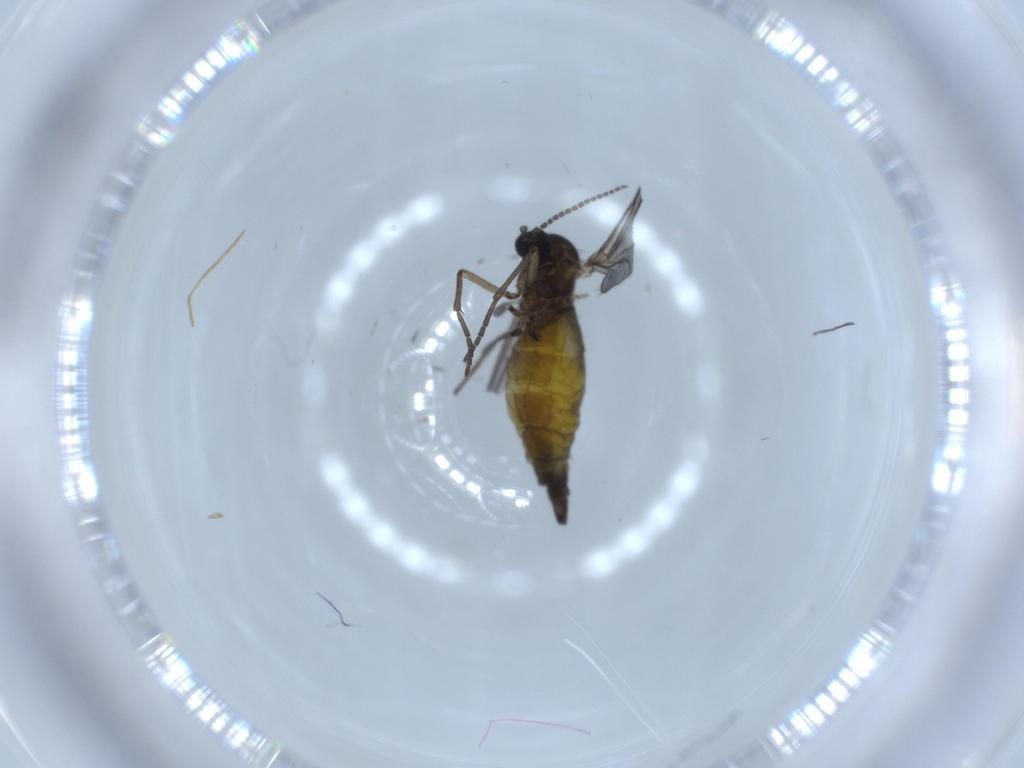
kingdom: Animalia
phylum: Arthropoda
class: Insecta
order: Diptera
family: Sciaridae
